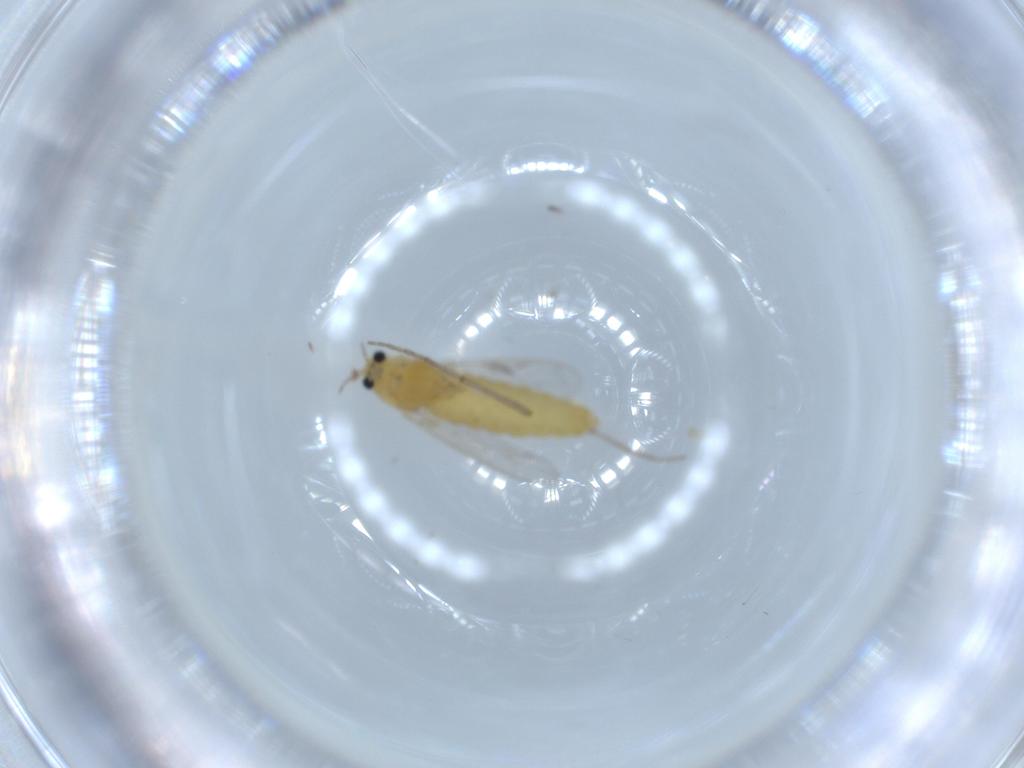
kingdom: Animalia
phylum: Arthropoda
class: Insecta
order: Diptera
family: Chironomidae
